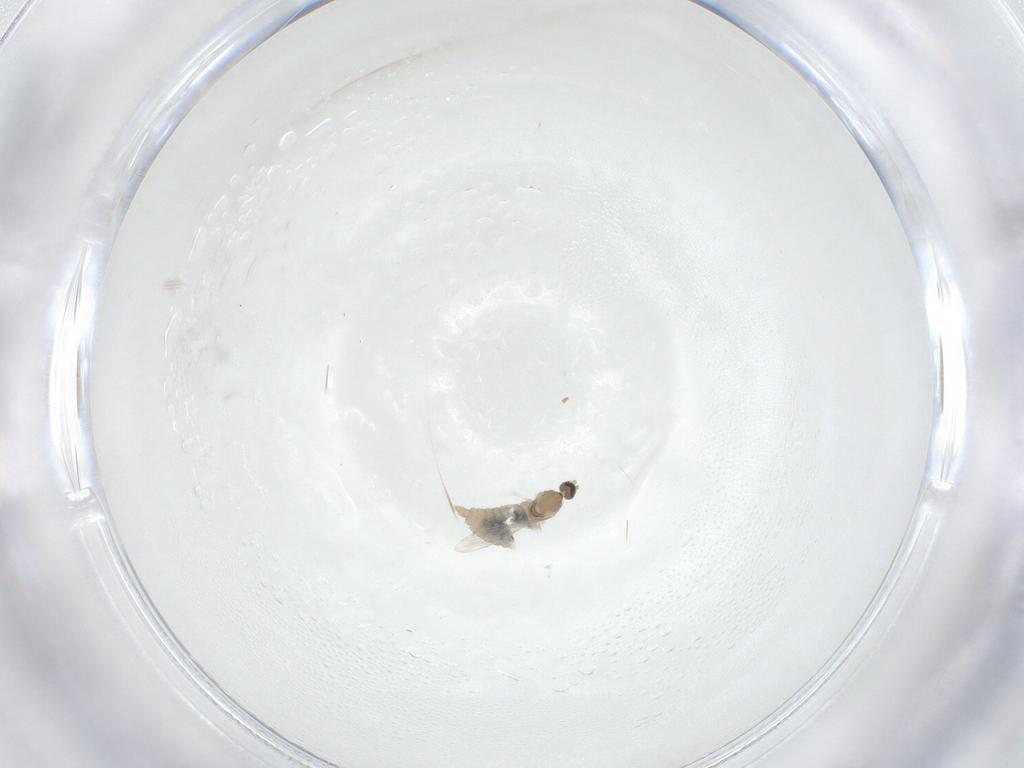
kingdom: Animalia
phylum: Arthropoda
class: Insecta
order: Diptera
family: Cecidomyiidae
